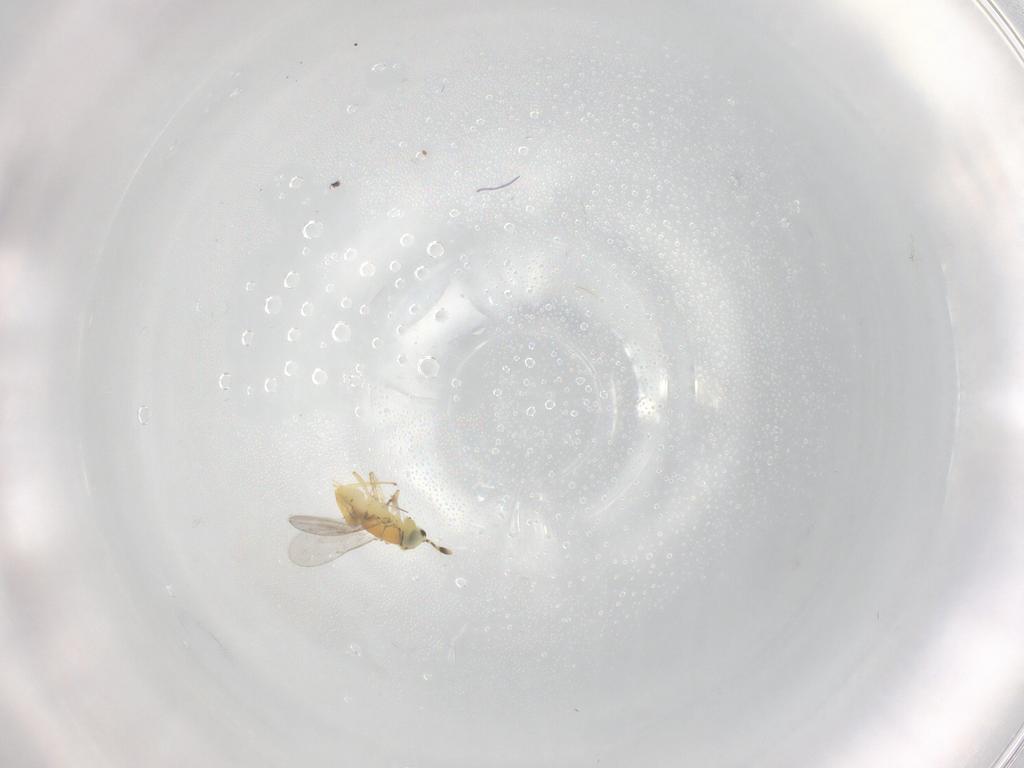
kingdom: Animalia
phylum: Arthropoda
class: Insecta
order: Hymenoptera
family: Encyrtidae
